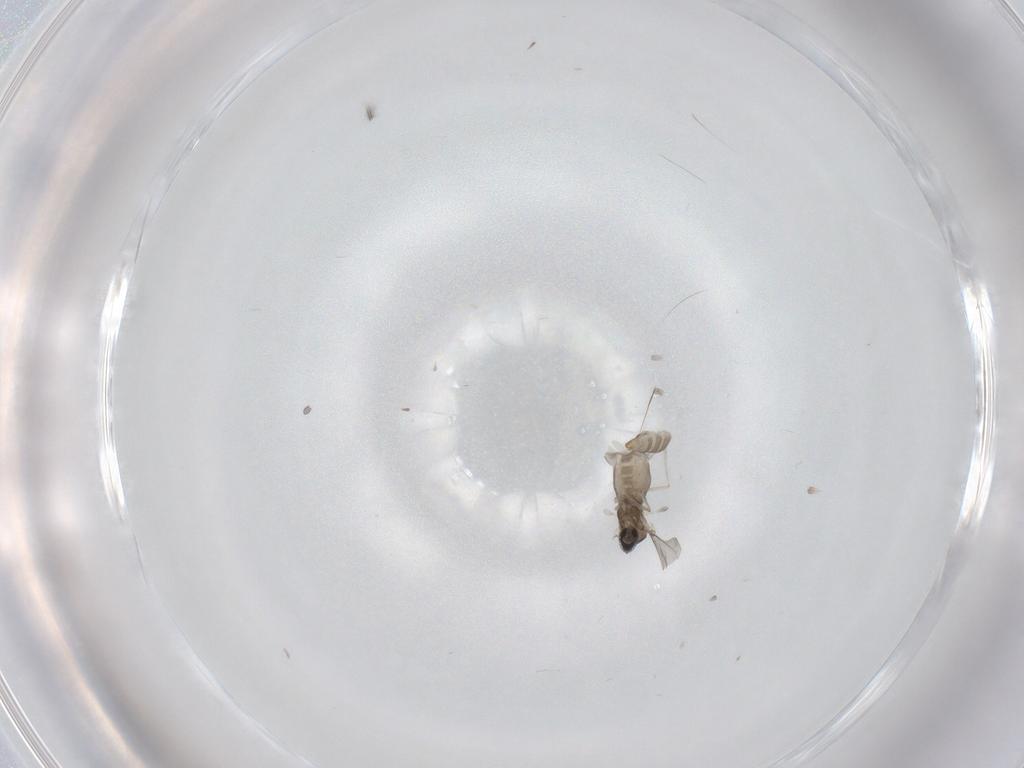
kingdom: Animalia
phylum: Arthropoda
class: Insecta
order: Diptera
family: Cecidomyiidae
